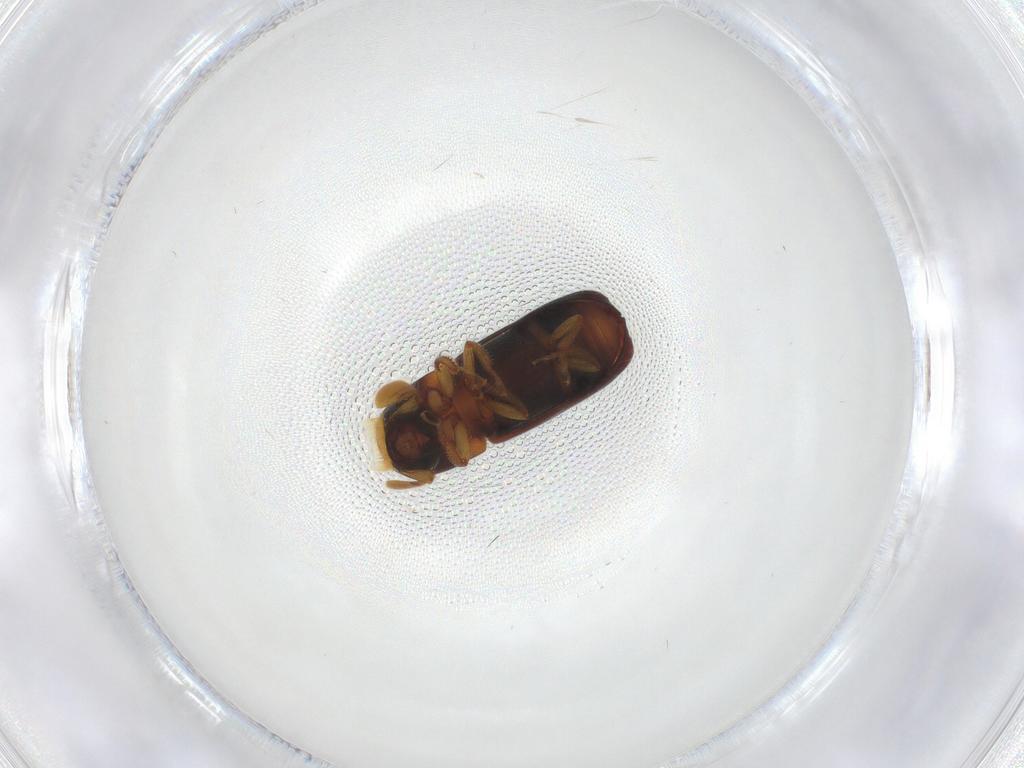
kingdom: Animalia
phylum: Arthropoda
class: Insecta
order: Coleoptera
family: Curculionidae
